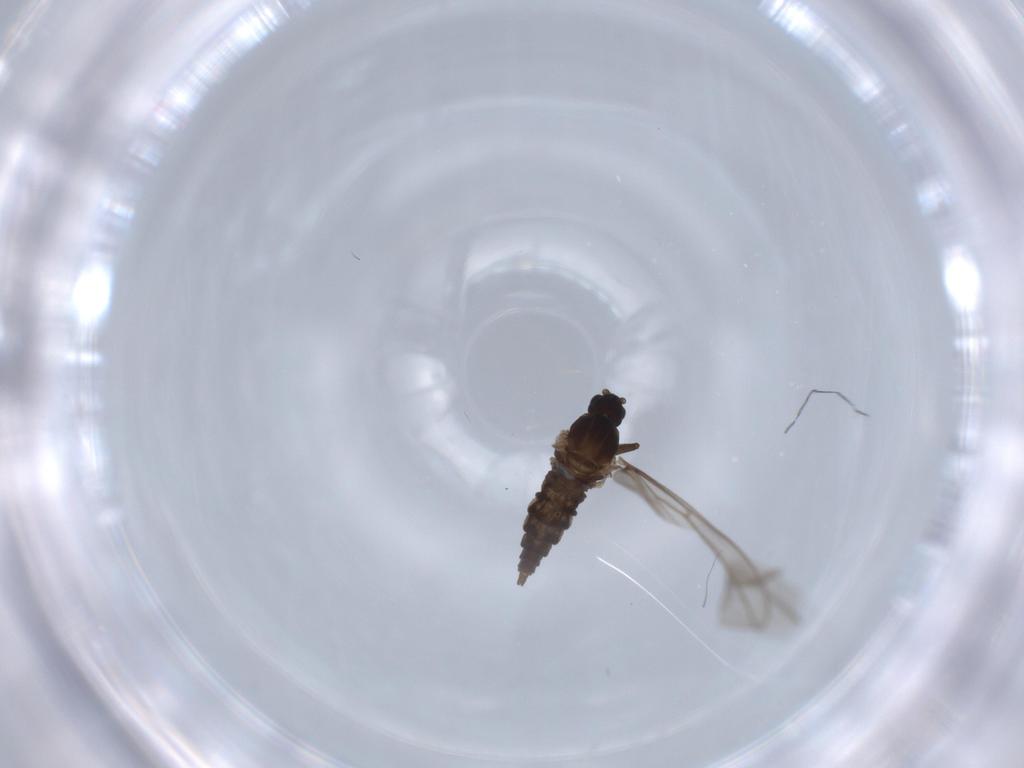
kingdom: Animalia
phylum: Arthropoda
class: Insecta
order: Diptera
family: Cecidomyiidae
